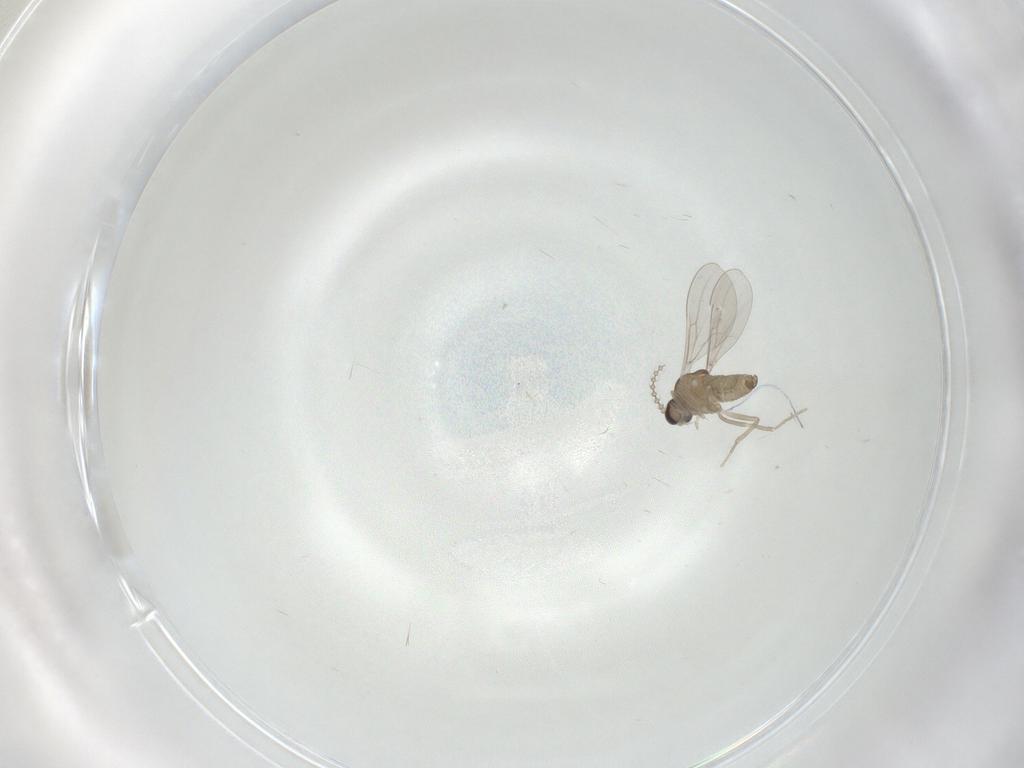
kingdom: Animalia
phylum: Arthropoda
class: Insecta
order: Diptera
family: Cecidomyiidae
